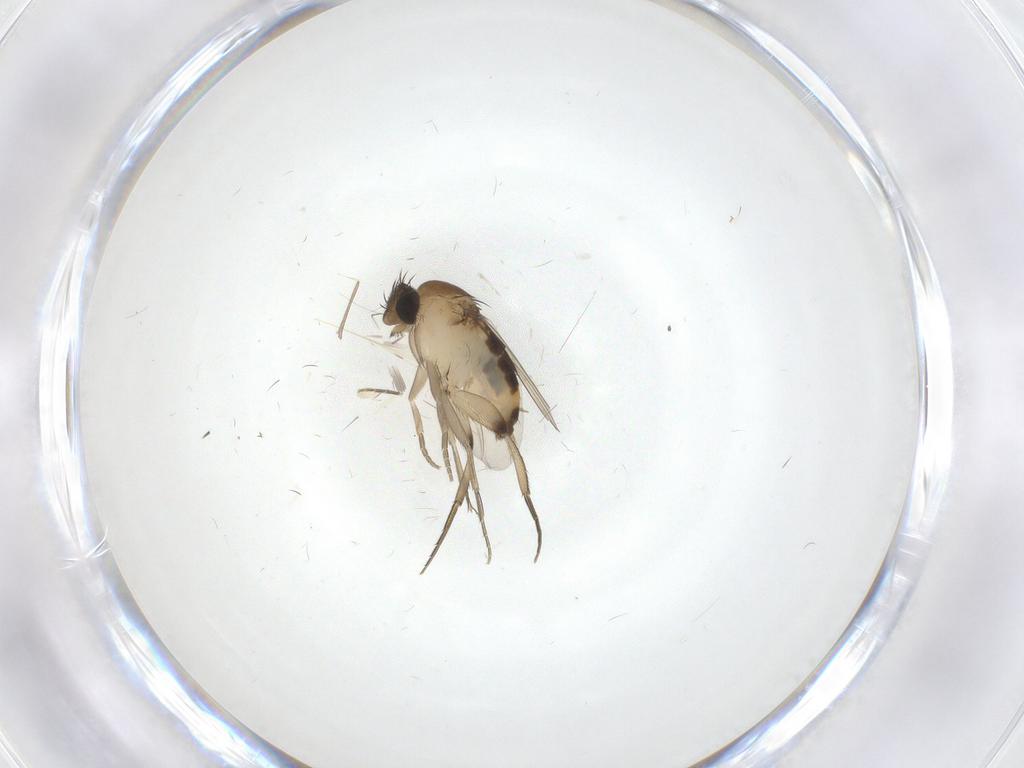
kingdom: Animalia
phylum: Arthropoda
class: Insecta
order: Diptera
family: Phoridae
